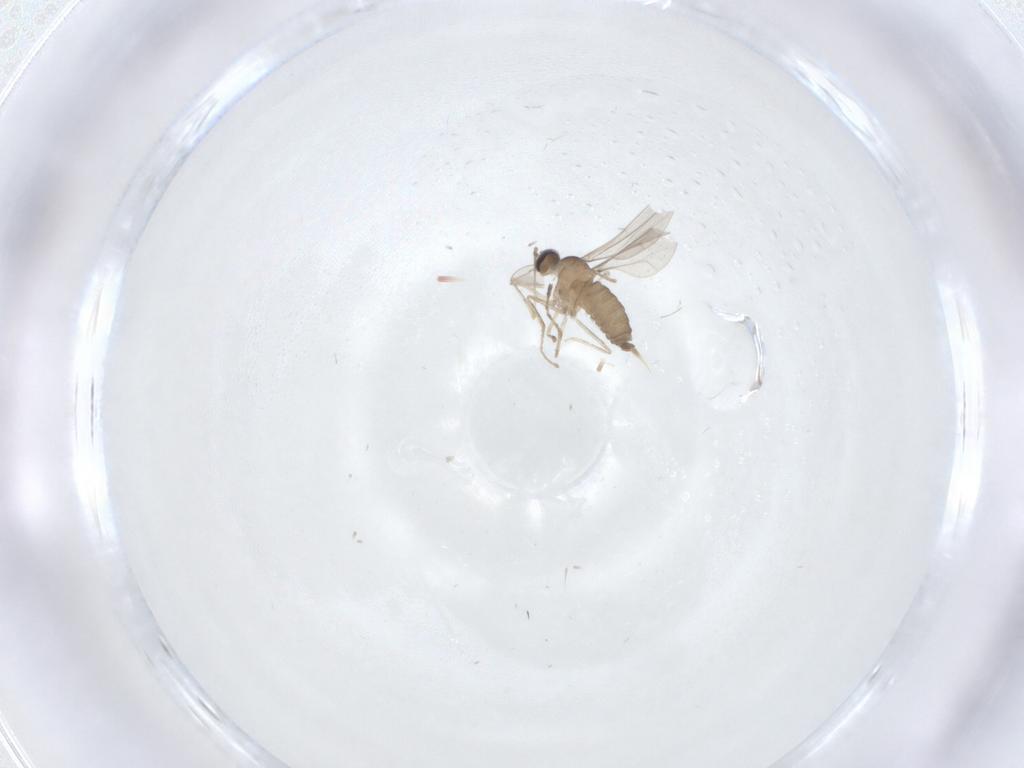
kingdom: Animalia
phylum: Arthropoda
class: Insecta
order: Diptera
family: Cecidomyiidae
